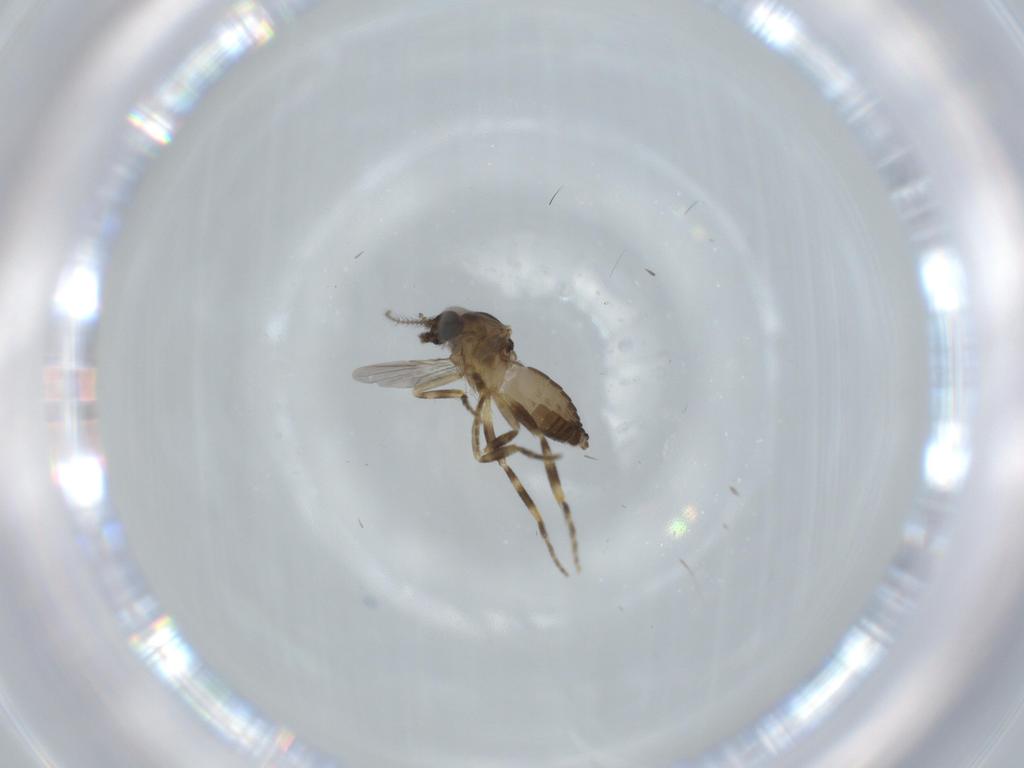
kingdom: Animalia
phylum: Arthropoda
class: Insecta
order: Diptera
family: Ceratopogonidae
